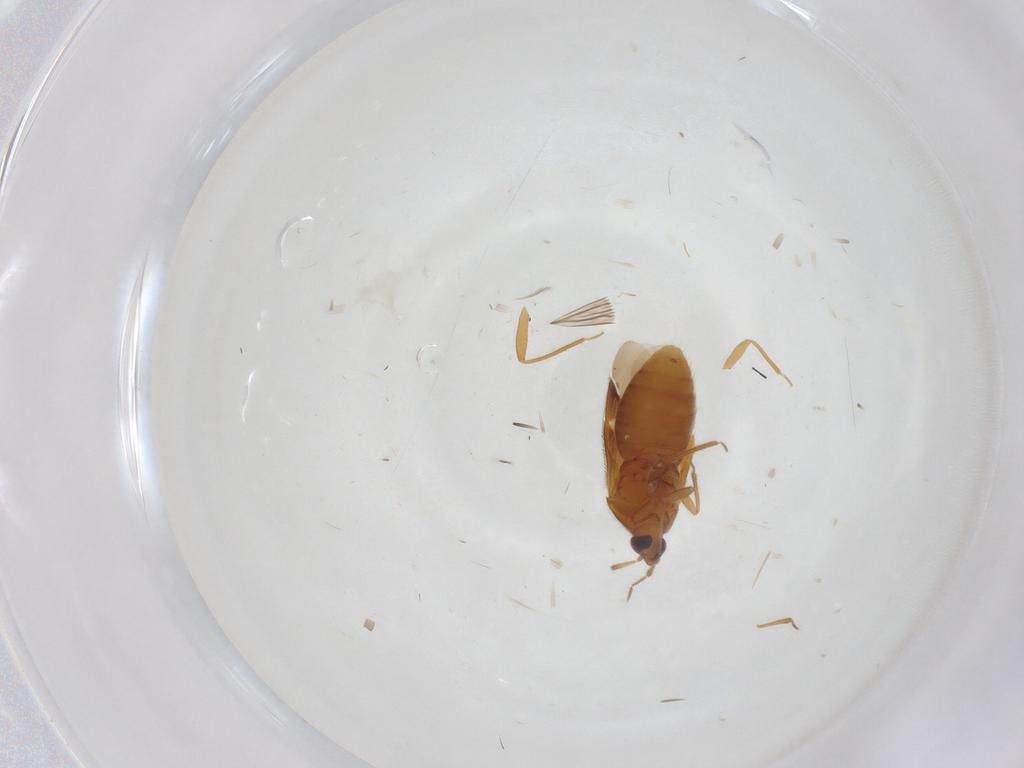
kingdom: Animalia
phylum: Arthropoda
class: Insecta
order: Hemiptera
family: Anthocoridae
